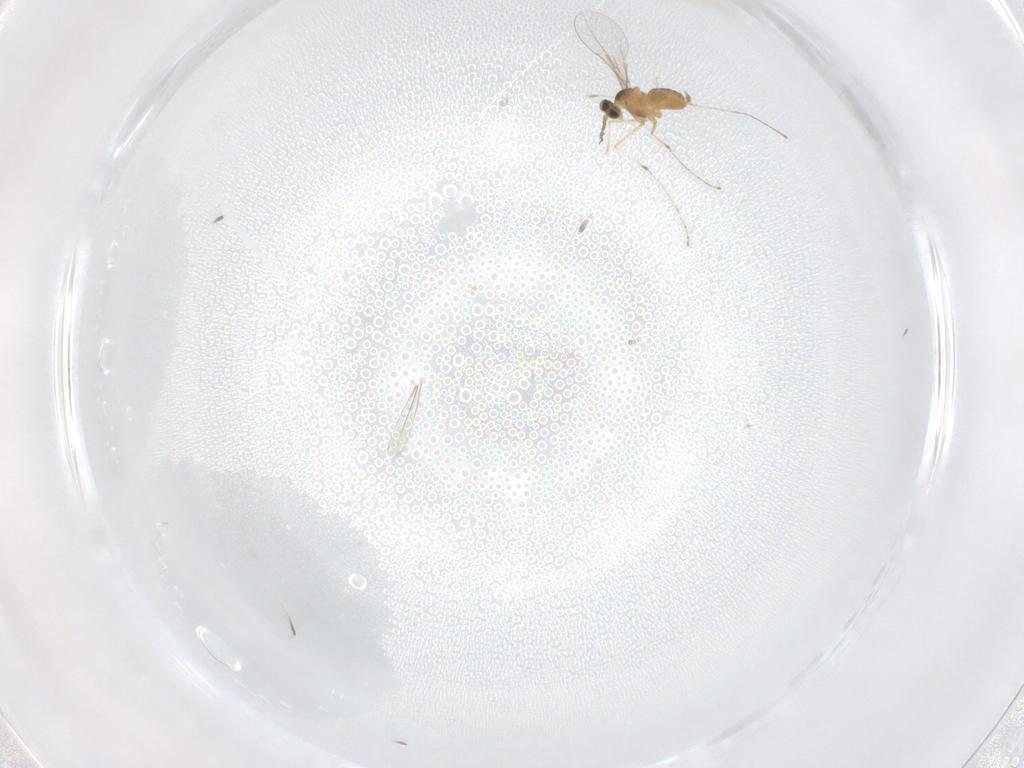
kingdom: Animalia
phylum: Arthropoda
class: Insecta
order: Diptera
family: Cecidomyiidae
